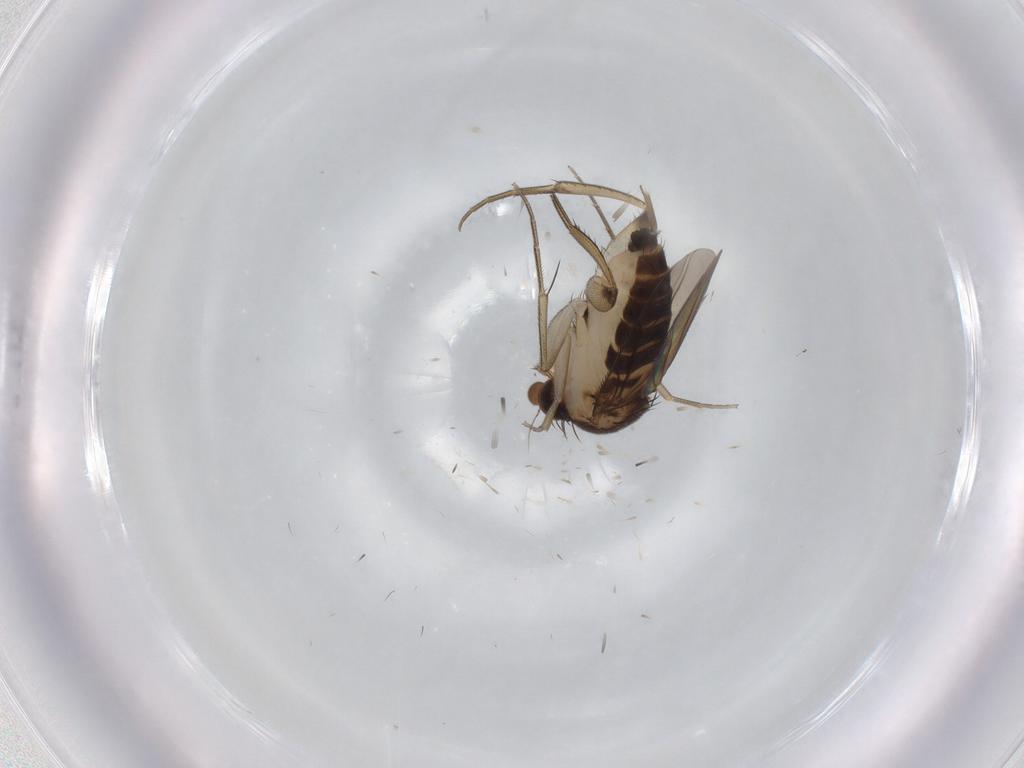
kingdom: Animalia
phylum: Arthropoda
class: Insecta
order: Diptera
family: Phoridae
